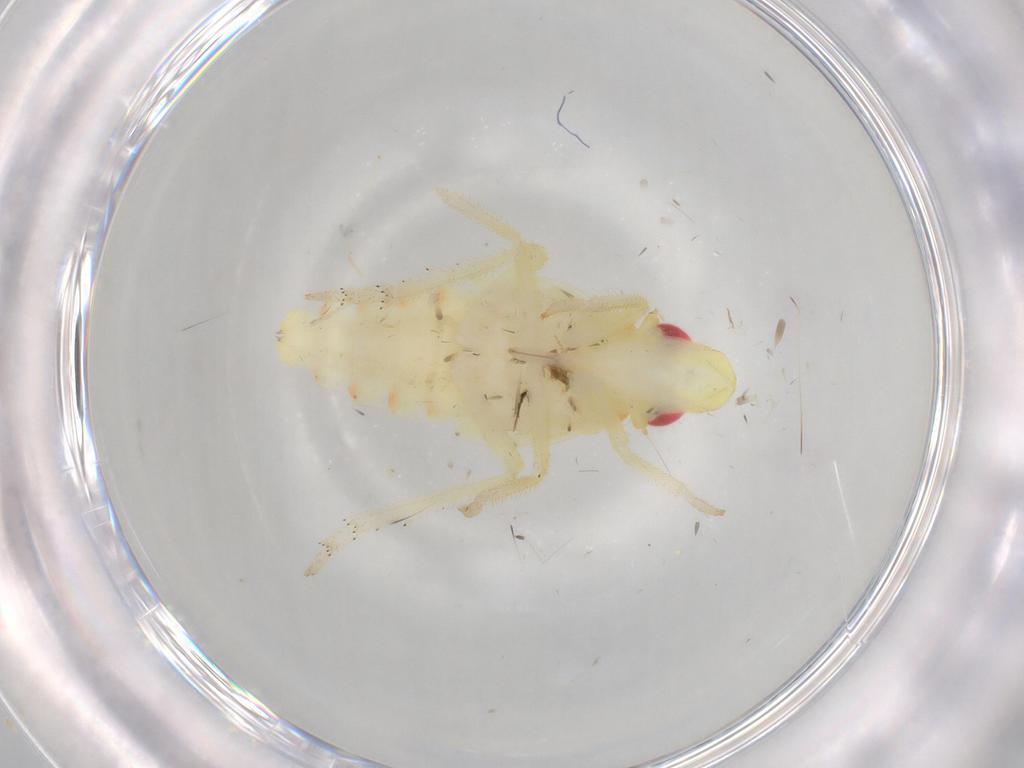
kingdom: Animalia
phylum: Arthropoda
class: Insecta
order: Hemiptera
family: Tropiduchidae
